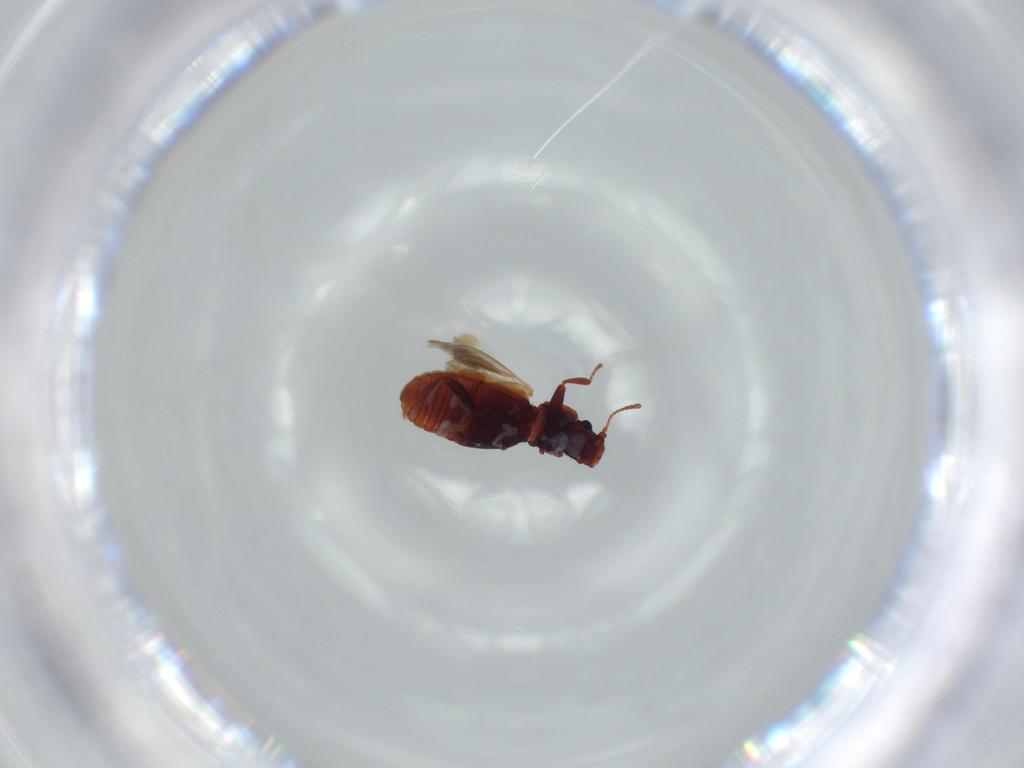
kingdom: Animalia
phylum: Arthropoda
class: Insecta
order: Coleoptera
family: Latridiidae
